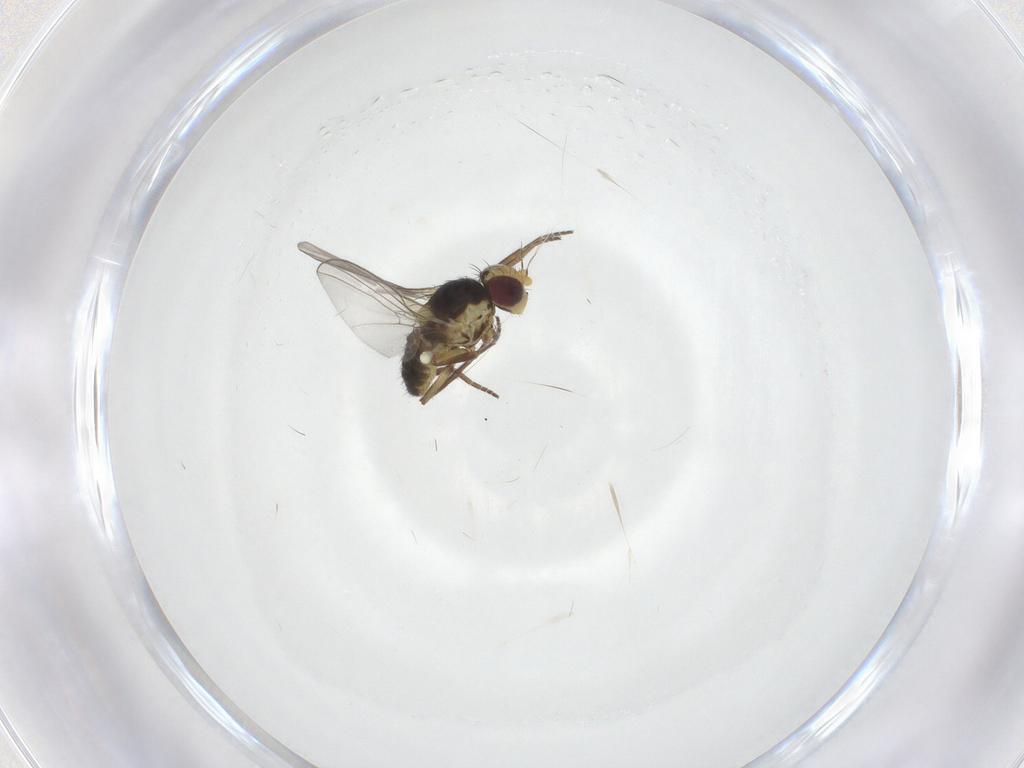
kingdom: Animalia
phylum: Arthropoda
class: Insecta
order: Diptera
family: Agromyzidae
